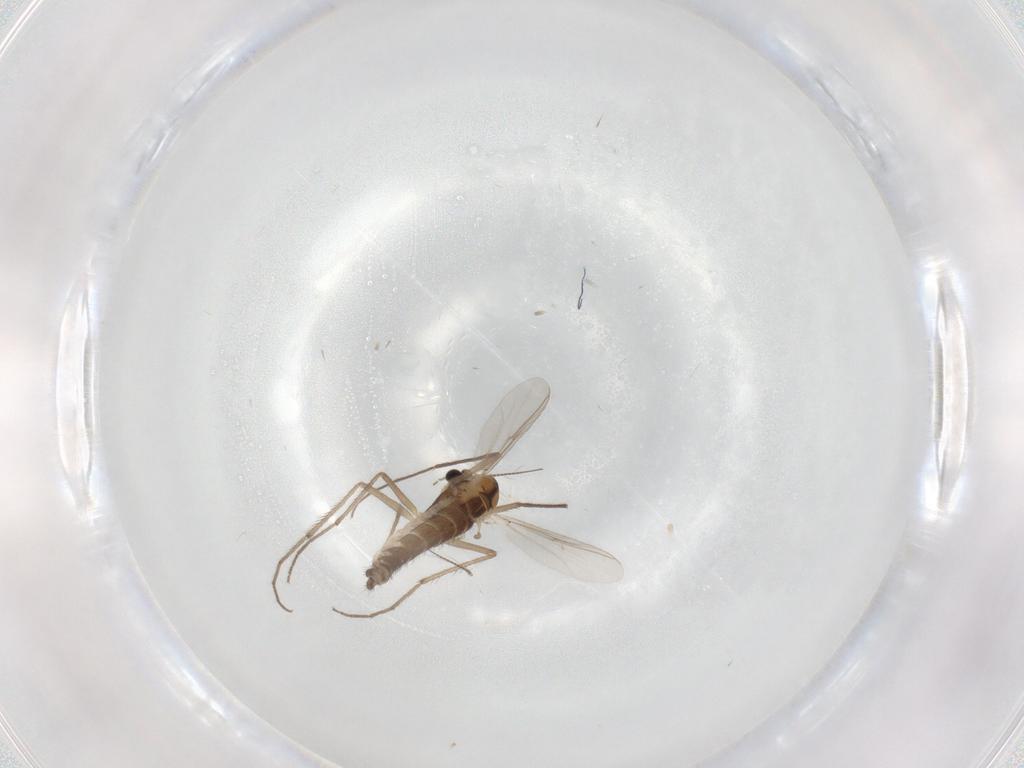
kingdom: Animalia
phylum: Arthropoda
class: Insecta
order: Diptera
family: Chironomidae
